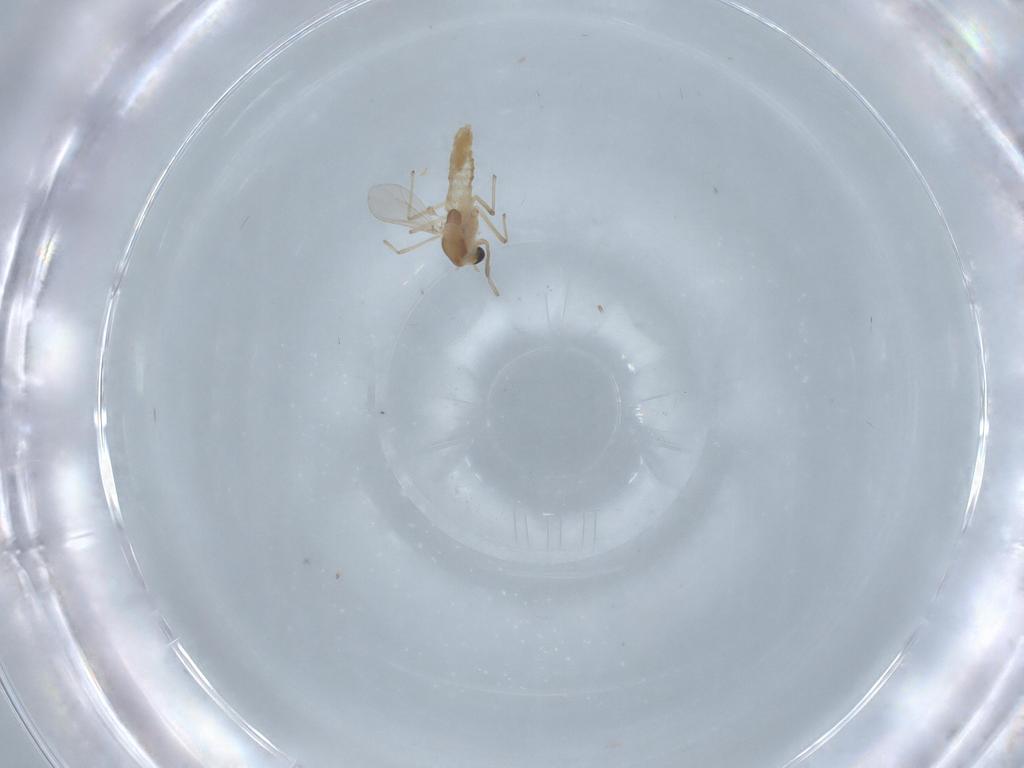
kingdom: Animalia
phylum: Arthropoda
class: Insecta
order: Diptera
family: Chironomidae
